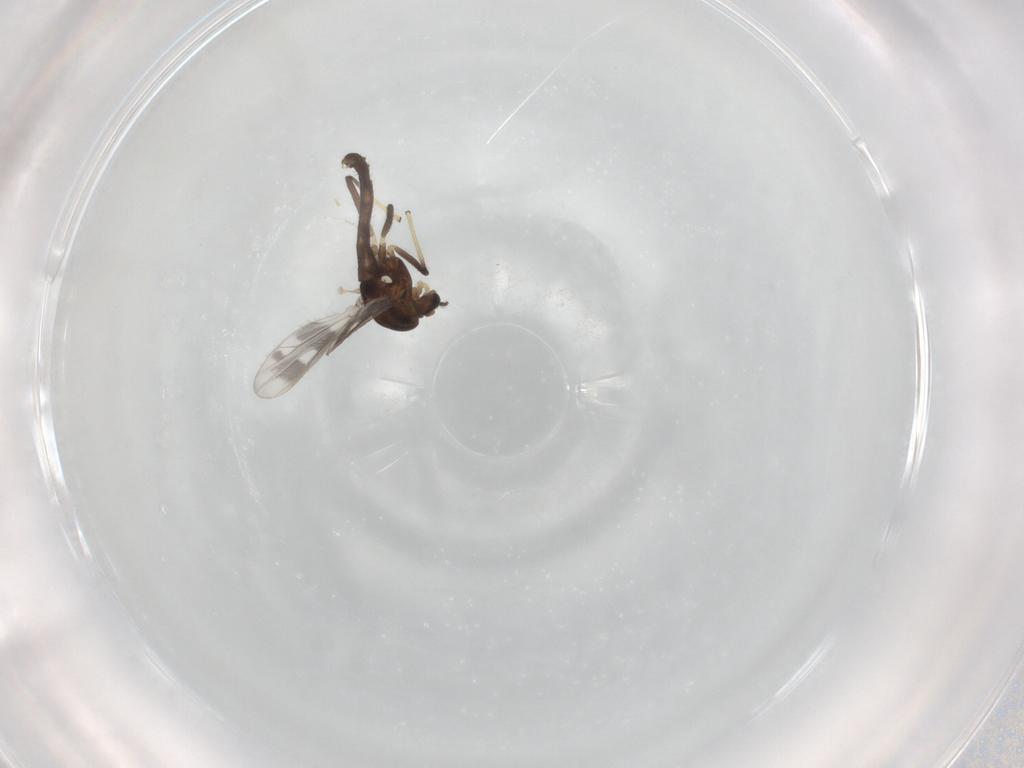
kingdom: Animalia
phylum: Arthropoda
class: Insecta
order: Diptera
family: Chironomidae
